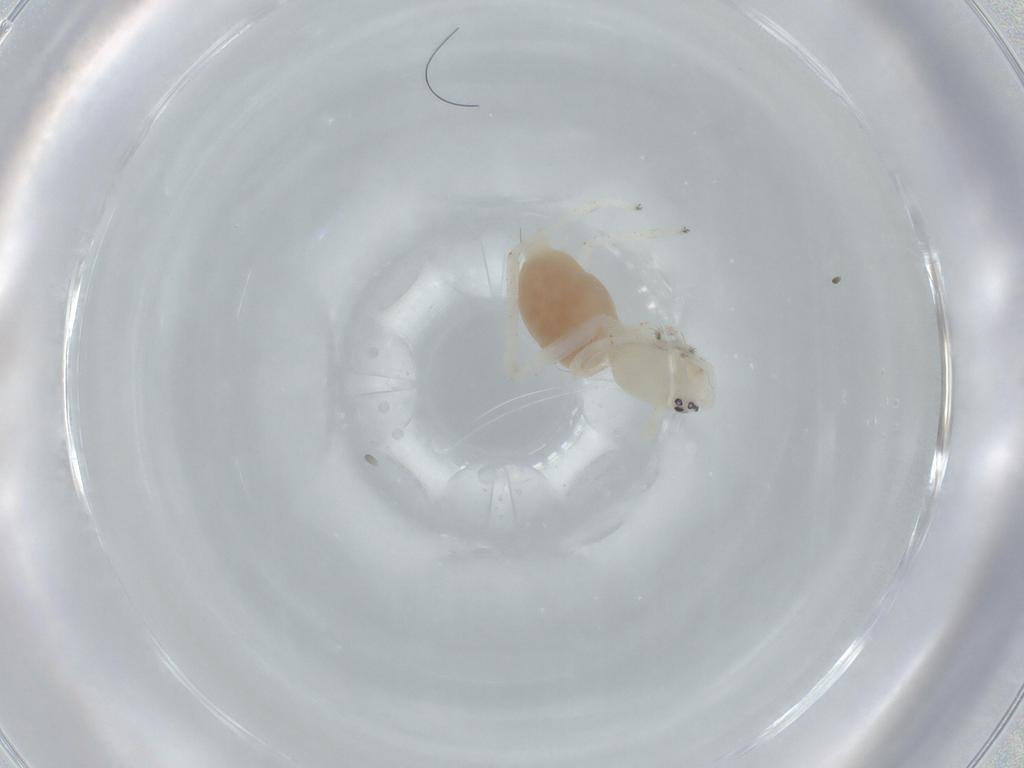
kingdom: Animalia
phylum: Arthropoda
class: Arachnida
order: Araneae
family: Anyphaenidae
